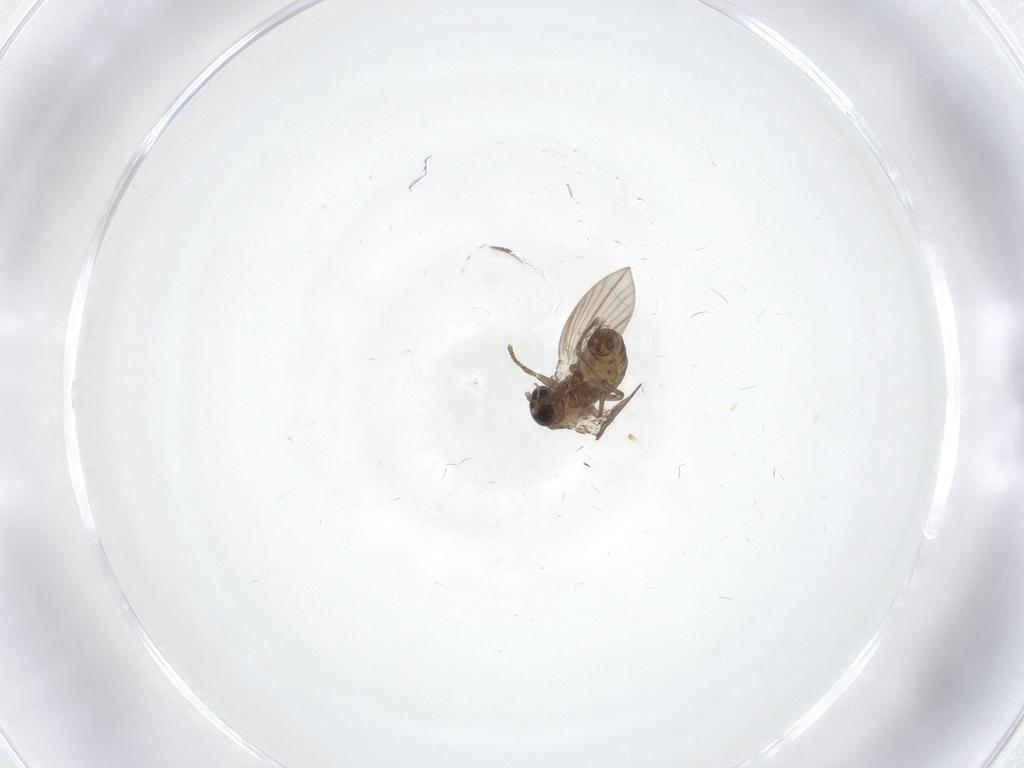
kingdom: Animalia
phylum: Arthropoda
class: Insecta
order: Diptera
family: Psychodidae
